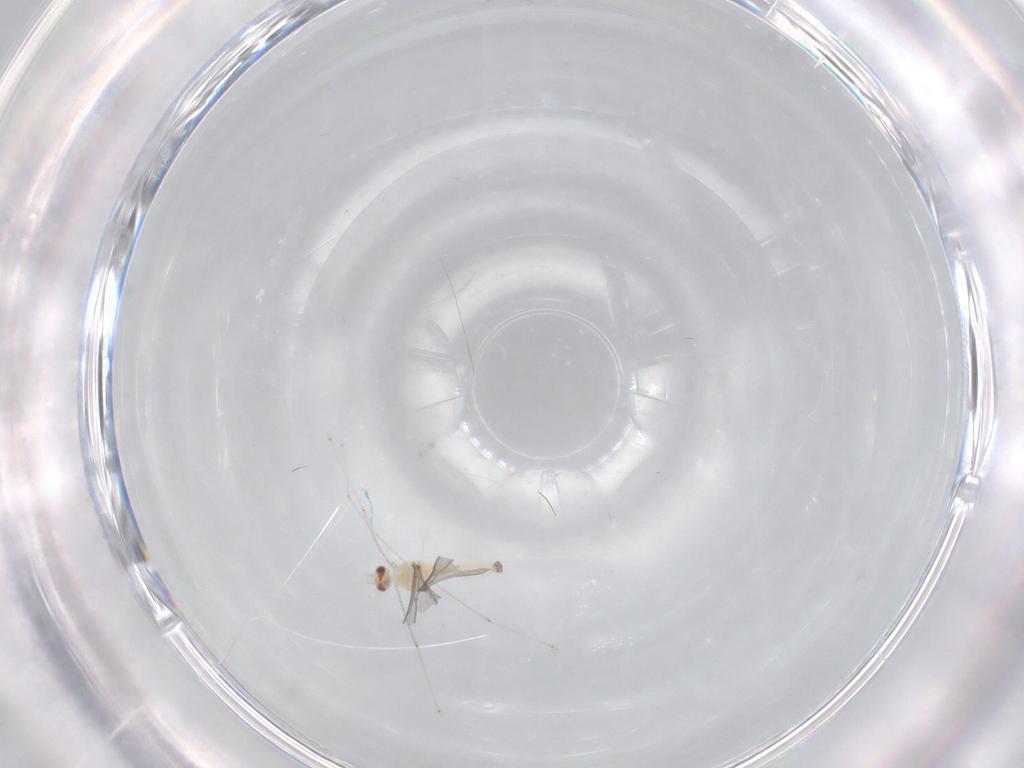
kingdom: Animalia
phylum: Arthropoda
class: Insecta
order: Diptera
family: Cecidomyiidae
